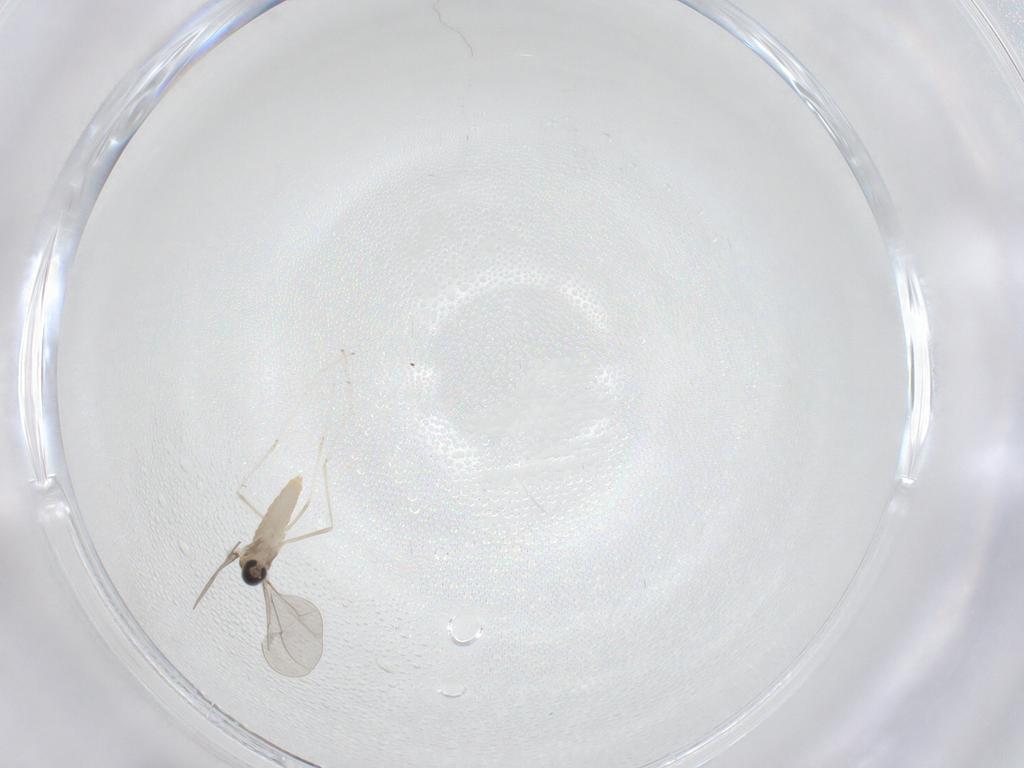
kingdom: Animalia
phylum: Arthropoda
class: Insecta
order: Diptera
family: Cecidomyiidae
